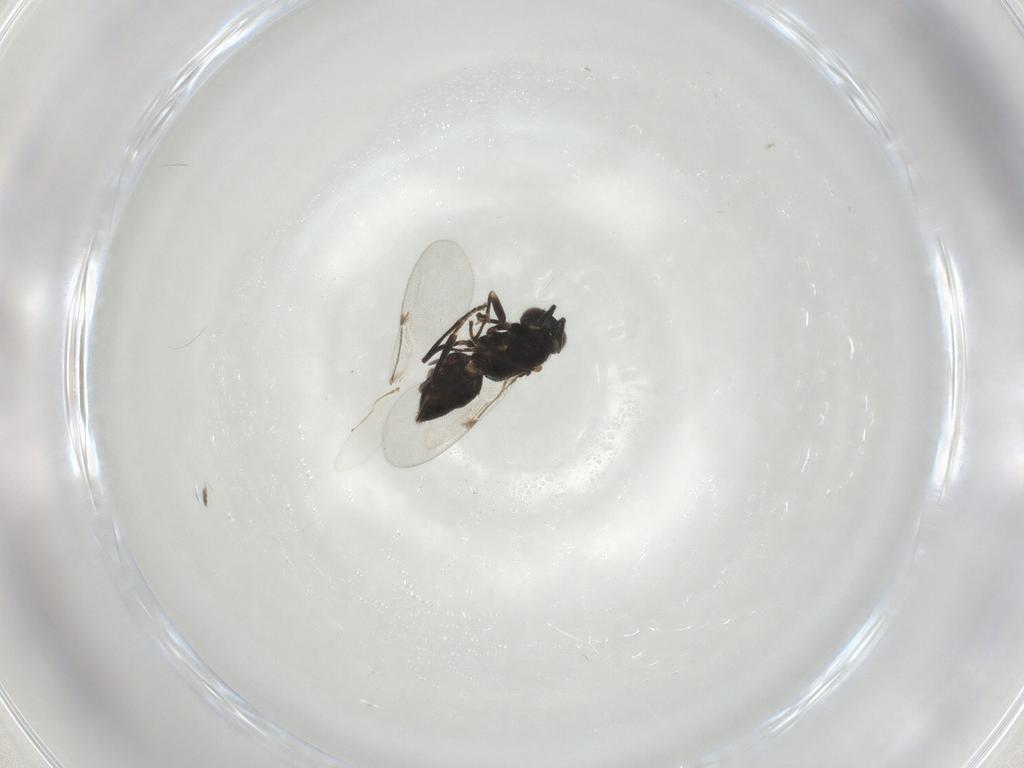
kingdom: Animalia
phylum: Arthropoda
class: Insecta
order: Hymenoptera
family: Encyrtidae
